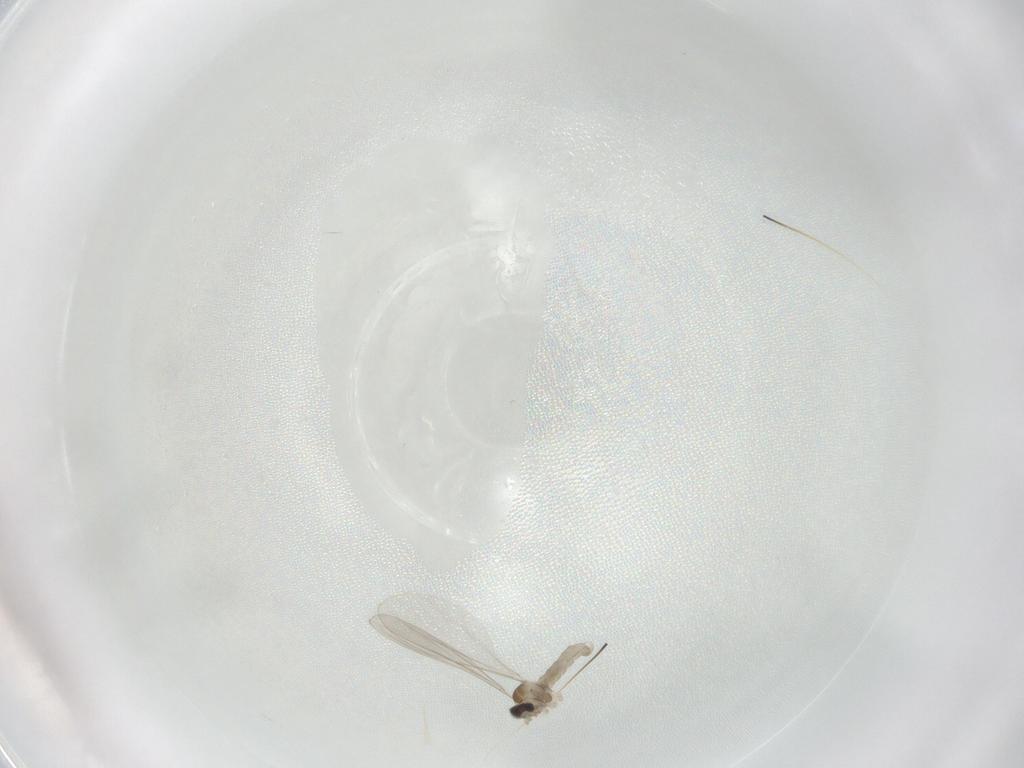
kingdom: Animalia
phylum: Arthropoda
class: Insecta
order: Diptera
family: Cecidomyiidae
